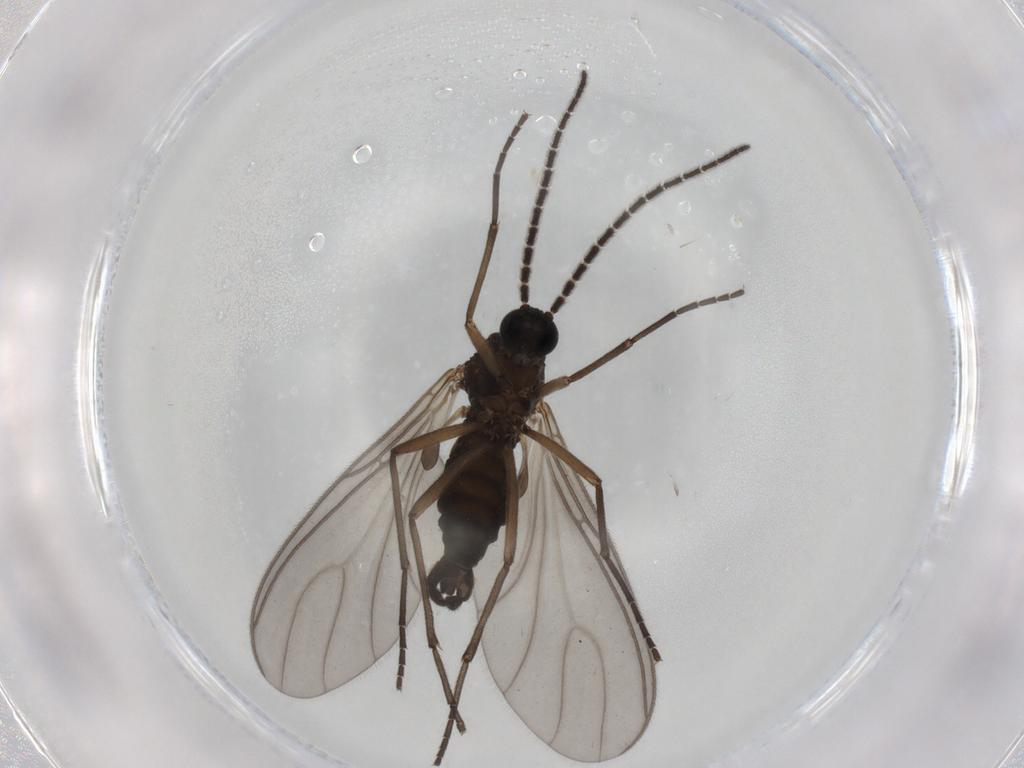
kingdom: Animalia
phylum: Arthropoda
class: Insecta
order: Diptera
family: Sciaridae
